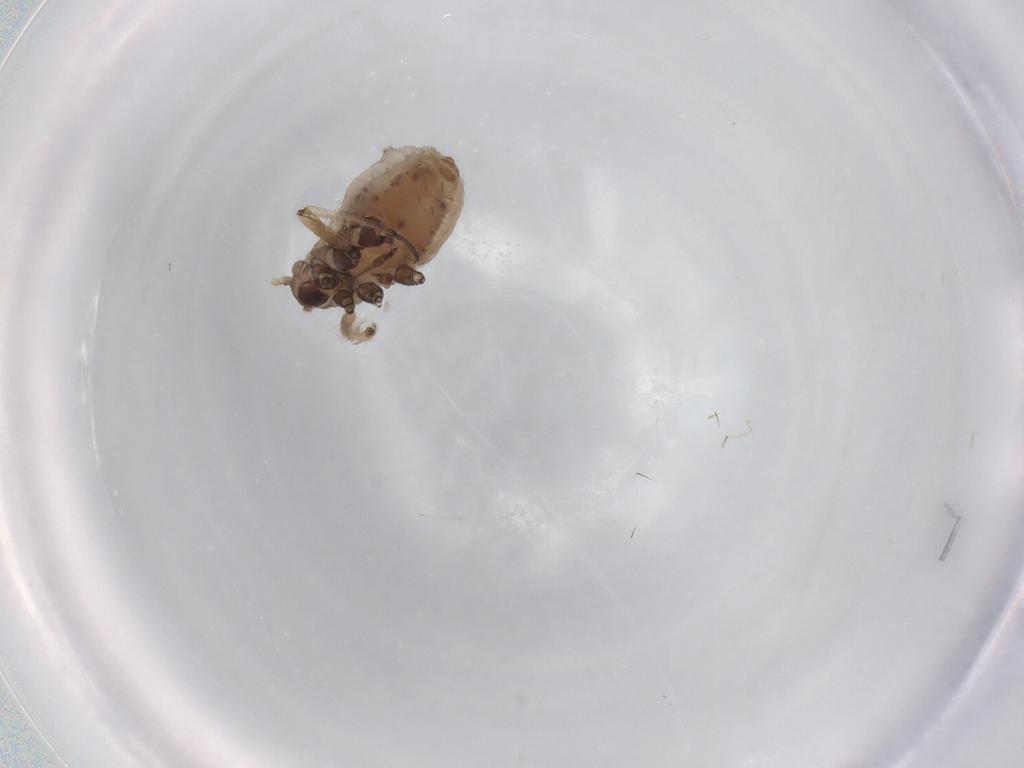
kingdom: Animalia
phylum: Arthropoda
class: Insecta
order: Hemiptera
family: Aphididae
